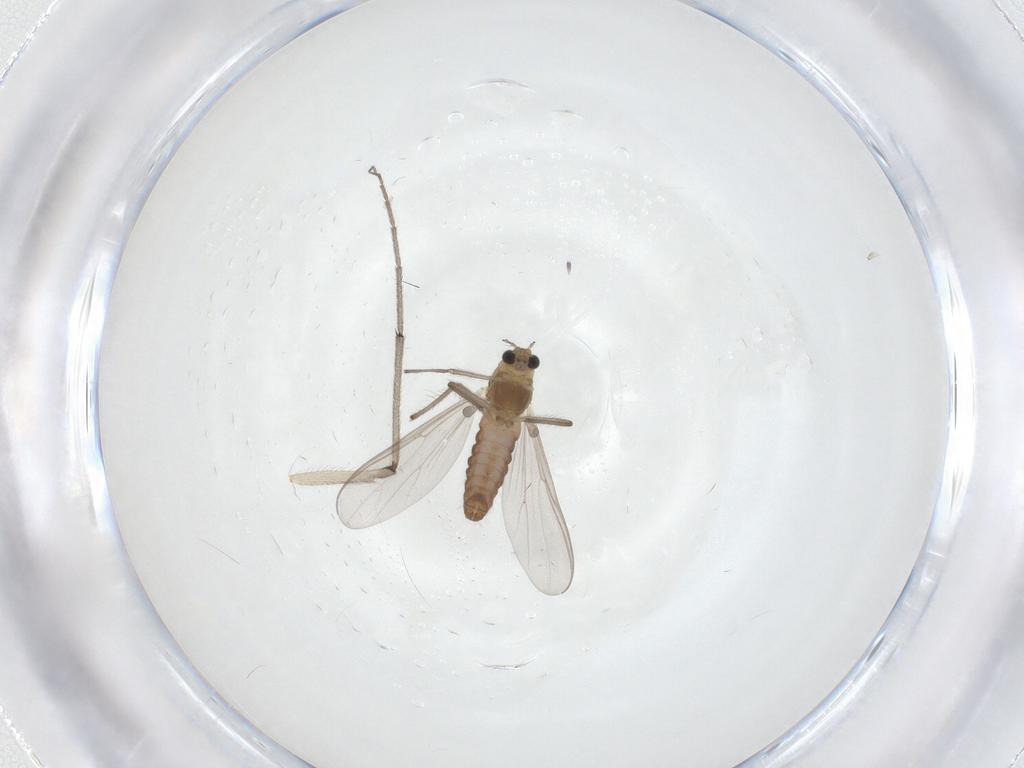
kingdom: Animalia
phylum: Arthropoda
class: Insecta
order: Diptera
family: Chironomidae
